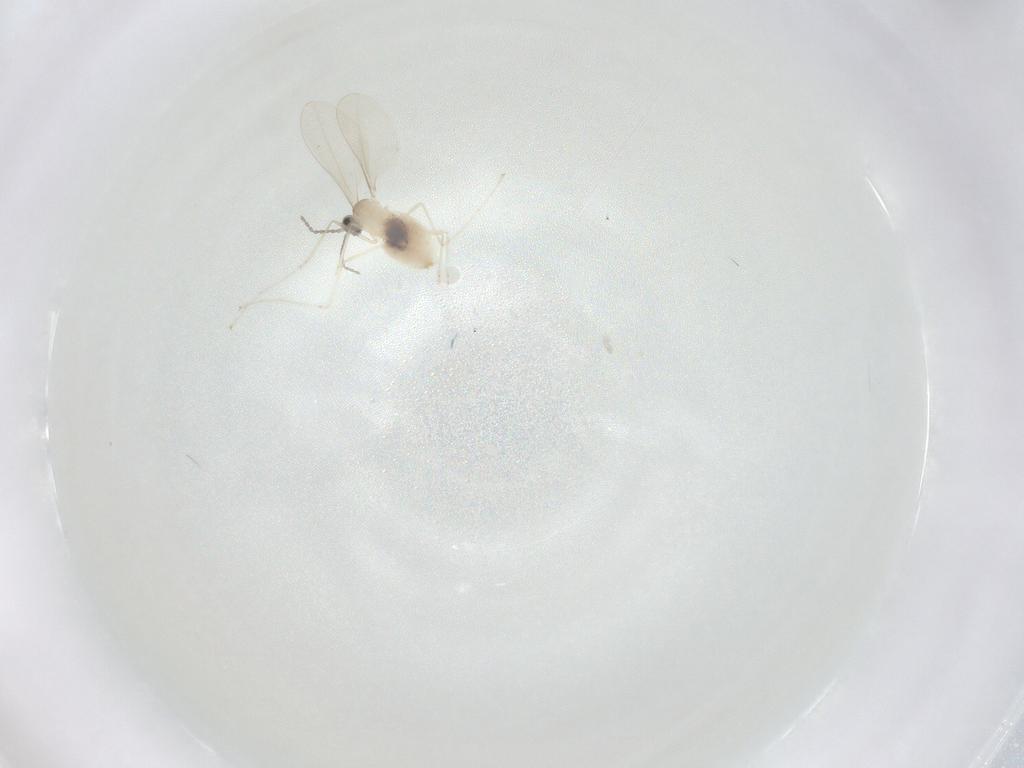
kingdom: Animalia
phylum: Arthropoda
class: Insecta
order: Diptera
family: Cecidomyiidae
